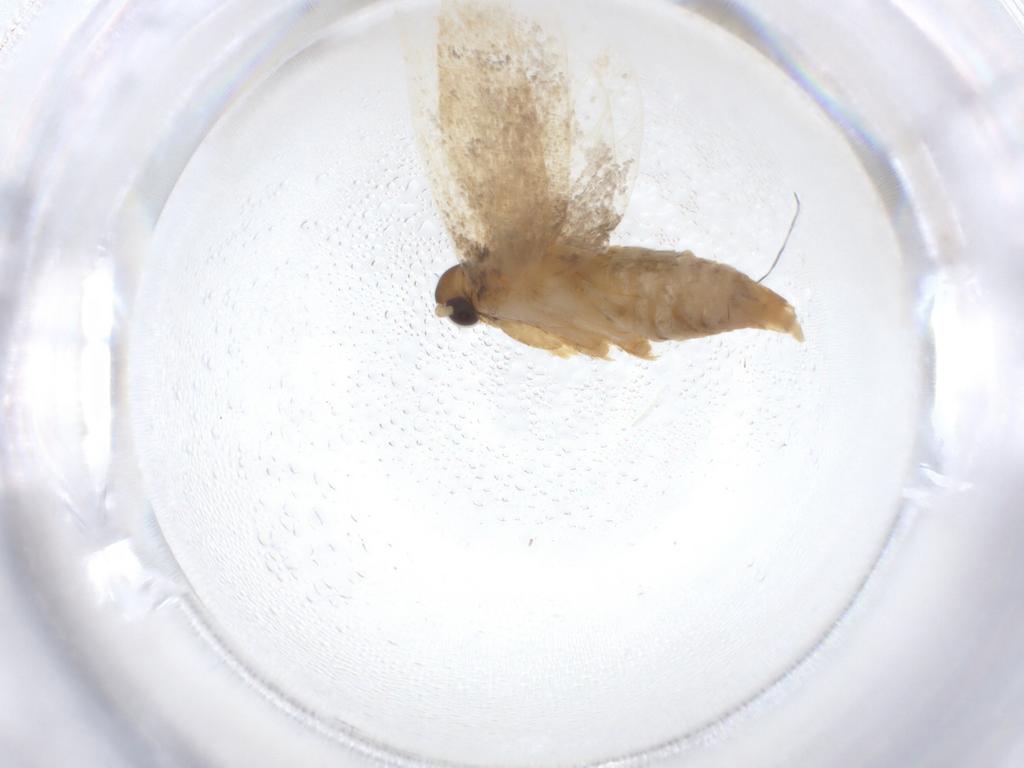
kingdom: Animalia
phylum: Arthropoda
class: Insecta
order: Lepidoptera
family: Lecithoceridae
